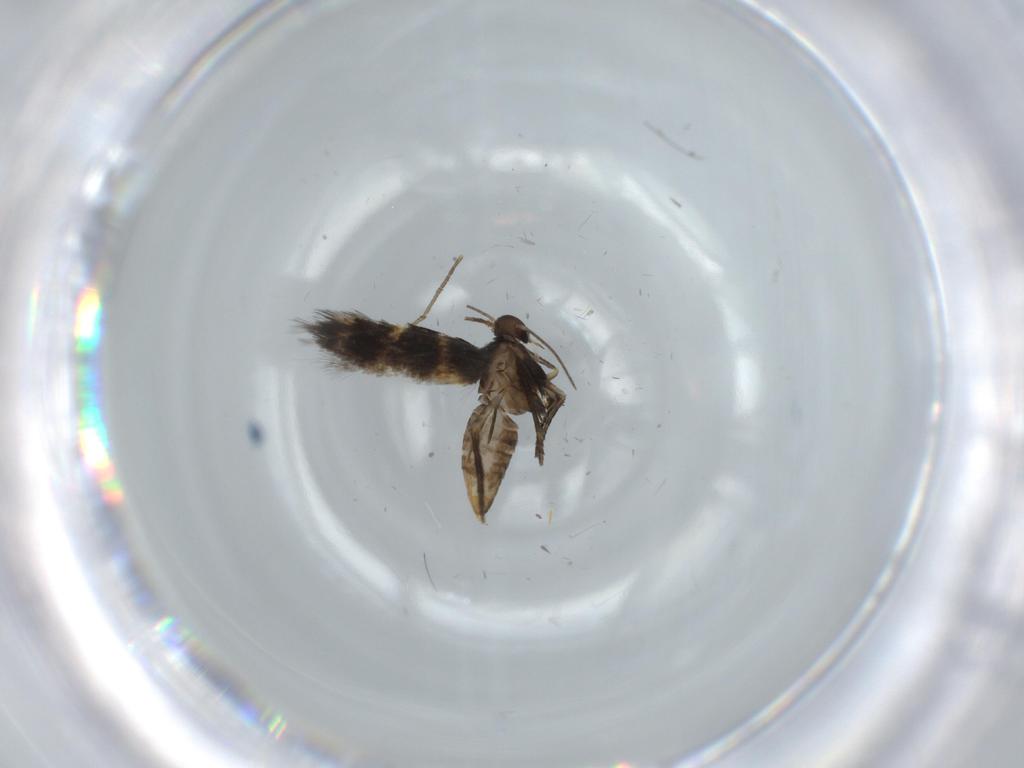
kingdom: Animalia
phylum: Arthropoda
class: Insecta
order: Lepidoptera
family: Heliozelidae
